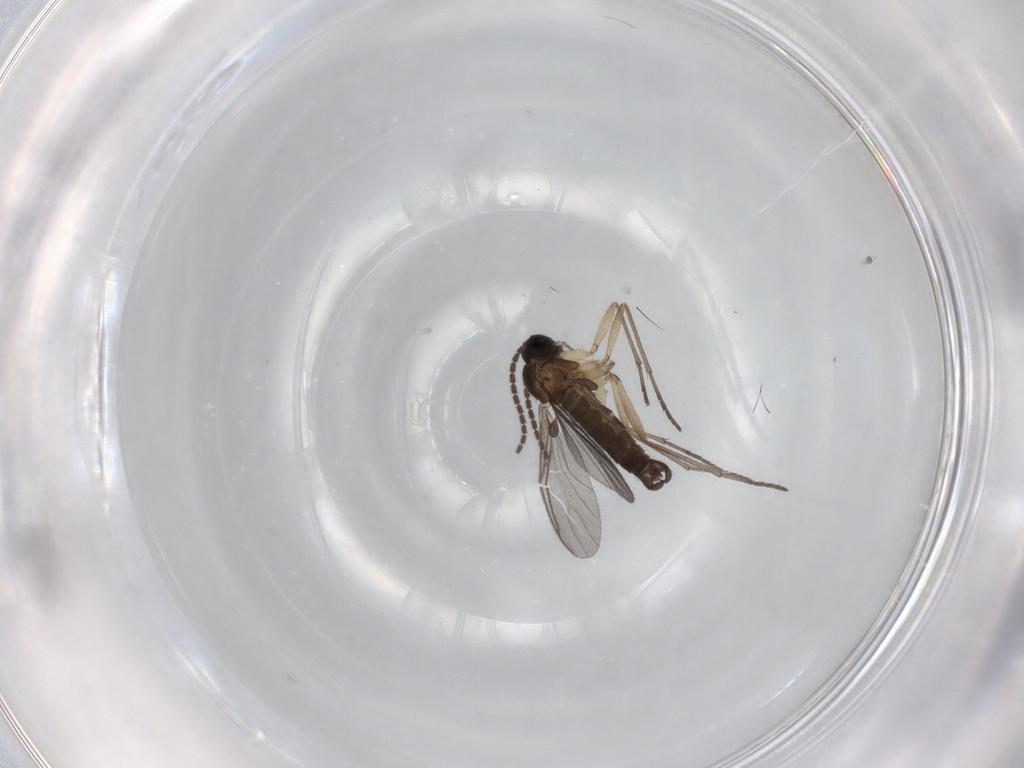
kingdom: Animalia
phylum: Arthropoda
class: Insecta
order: Diptera
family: Sciaridae
